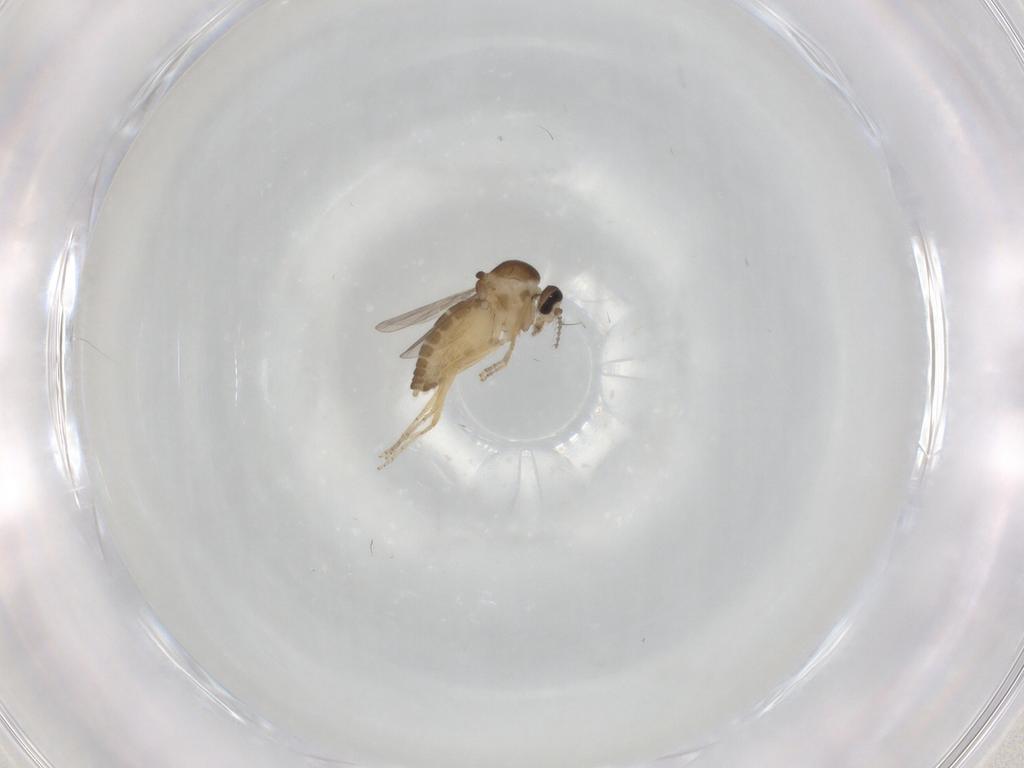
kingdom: Animalia
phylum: Arthropoda
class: Insecta
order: Diptera
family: Ceratopogonidae
